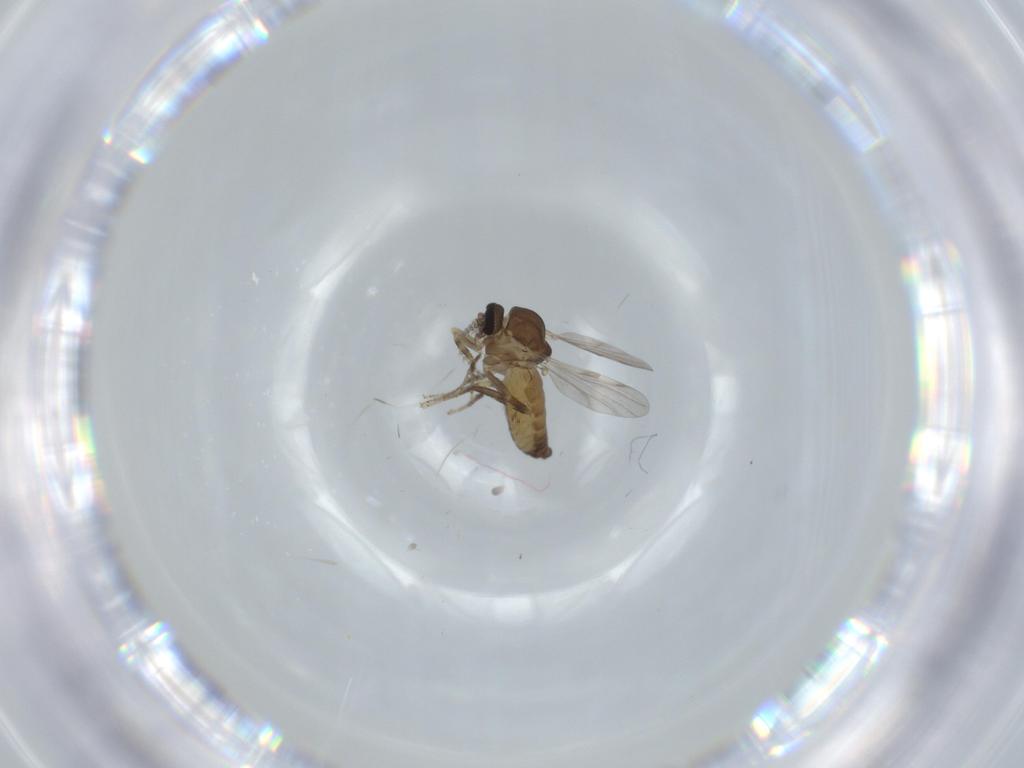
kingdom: Animalia
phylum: Arthropoda
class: Insecta
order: Diptera
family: Ceratopogonidae
